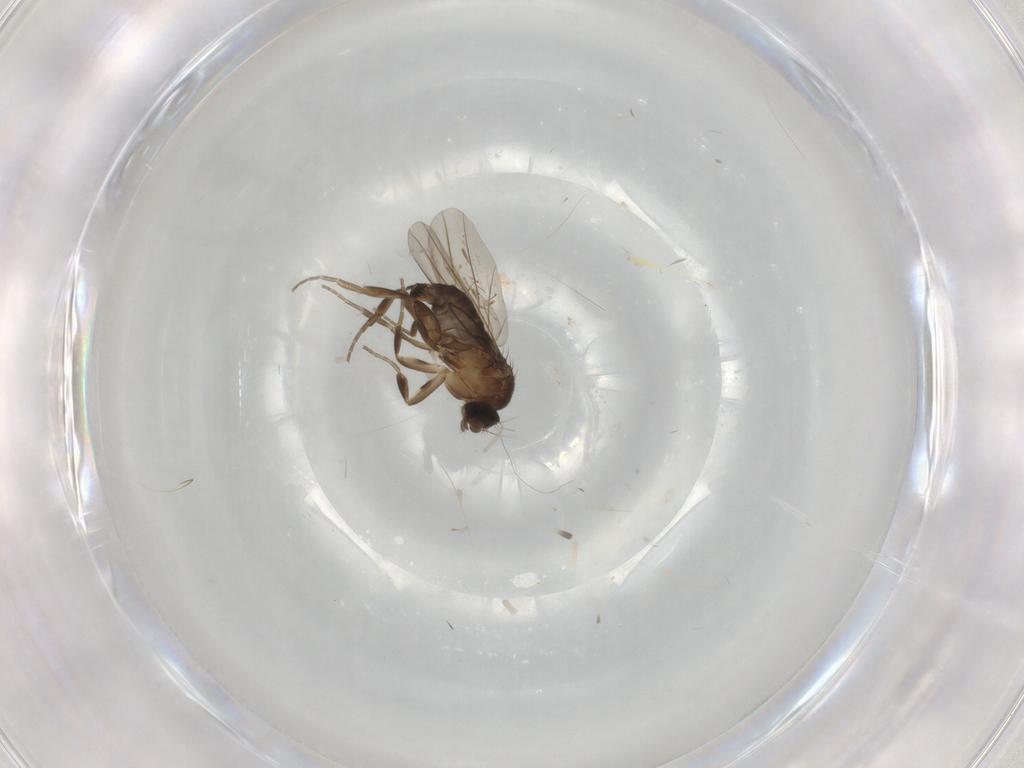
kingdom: Animalia
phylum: Arthropoda
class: Insecta
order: Diptera
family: Phoridae
